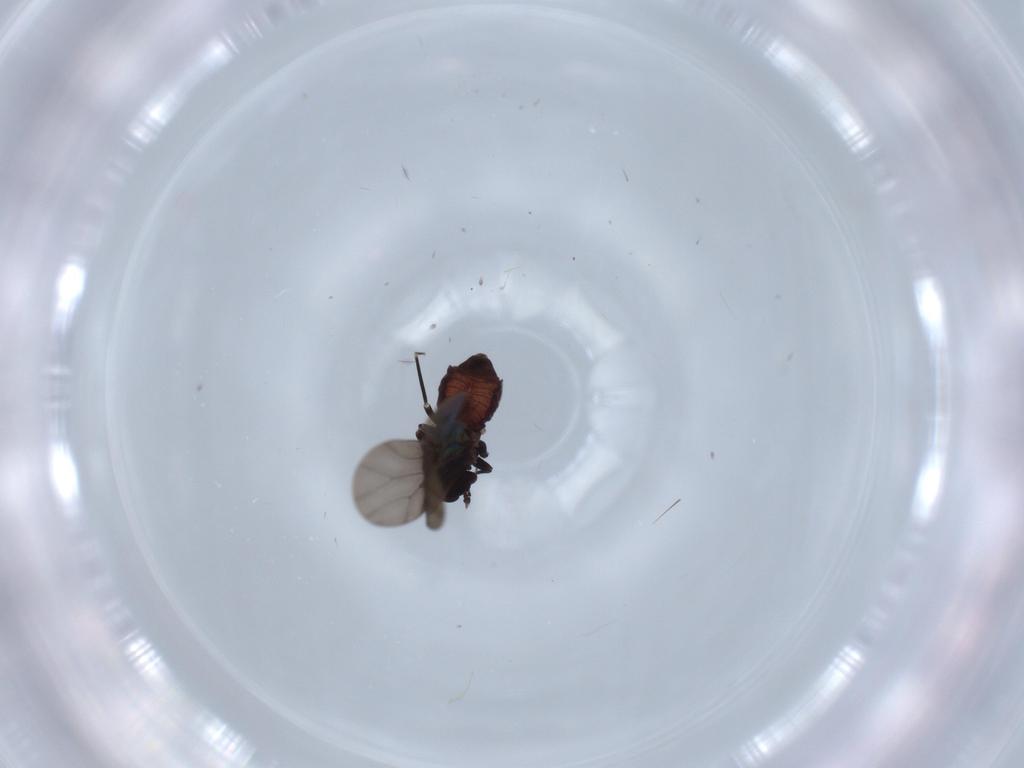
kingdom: Animalia
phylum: Arthropoda
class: Insecta
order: Psocodea
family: Lepidopsocidae
